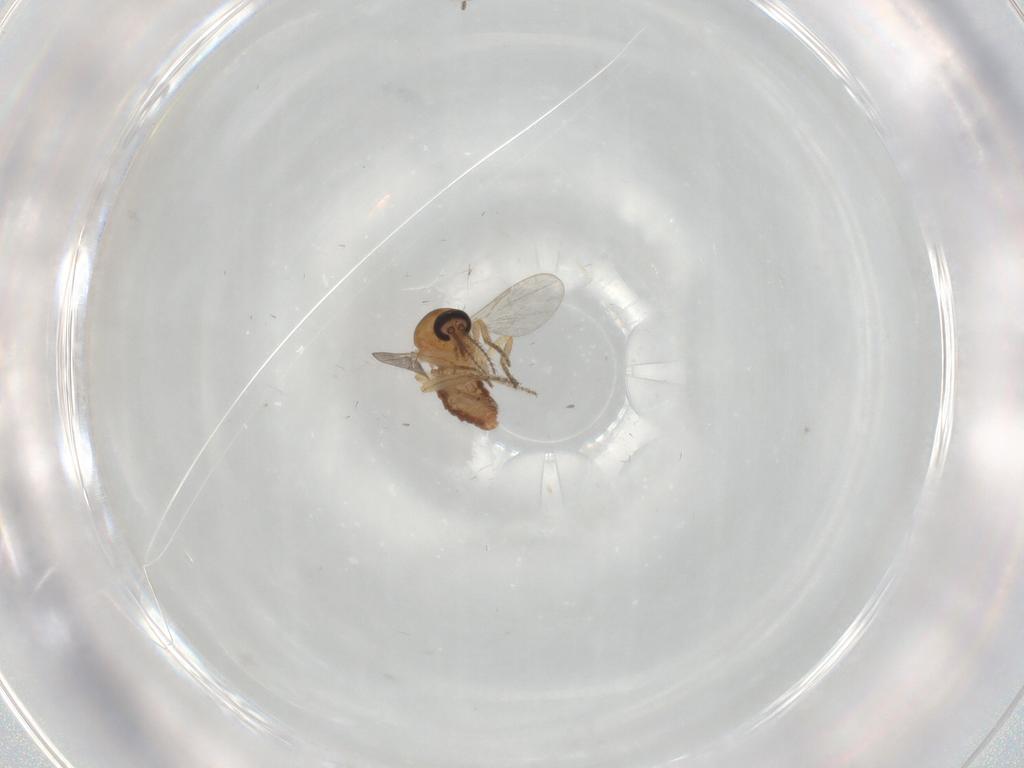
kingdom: Animalia
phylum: Arthropoda
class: Insecta
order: Diptera
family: Ceratopogonidae
